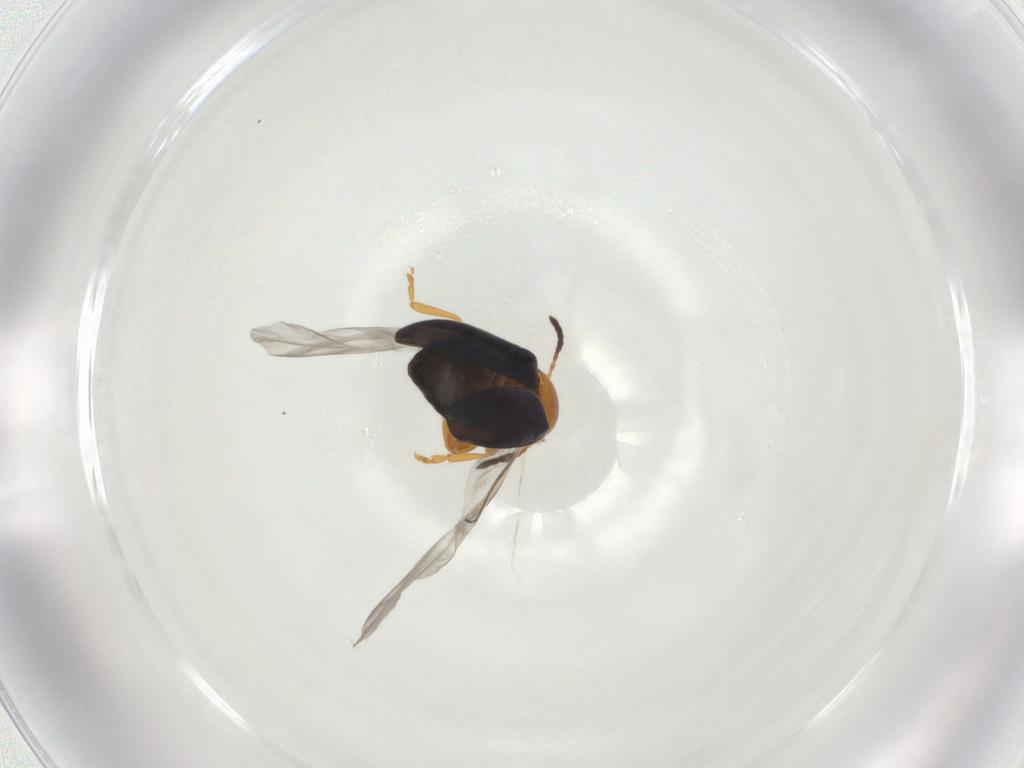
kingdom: Animalia
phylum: Arthropoda
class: Insecta
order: Coleoptera
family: Chrysomelidae
